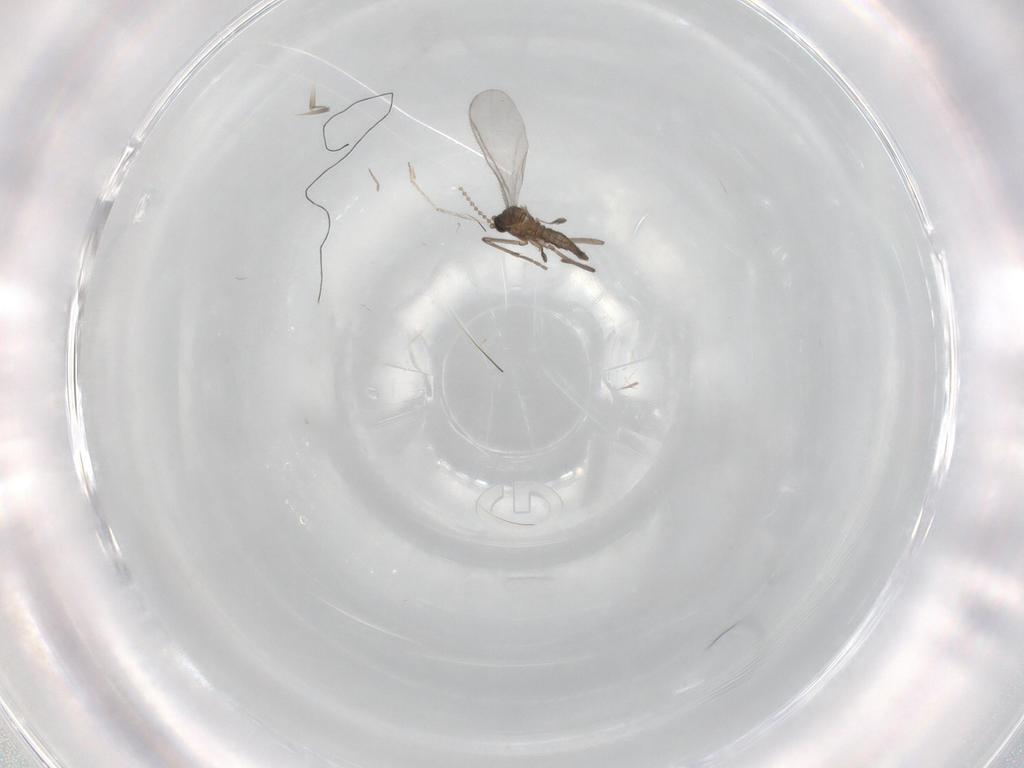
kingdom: Animalia
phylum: Arthropoda
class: Insecta
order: Diptera
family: Sciaridae
